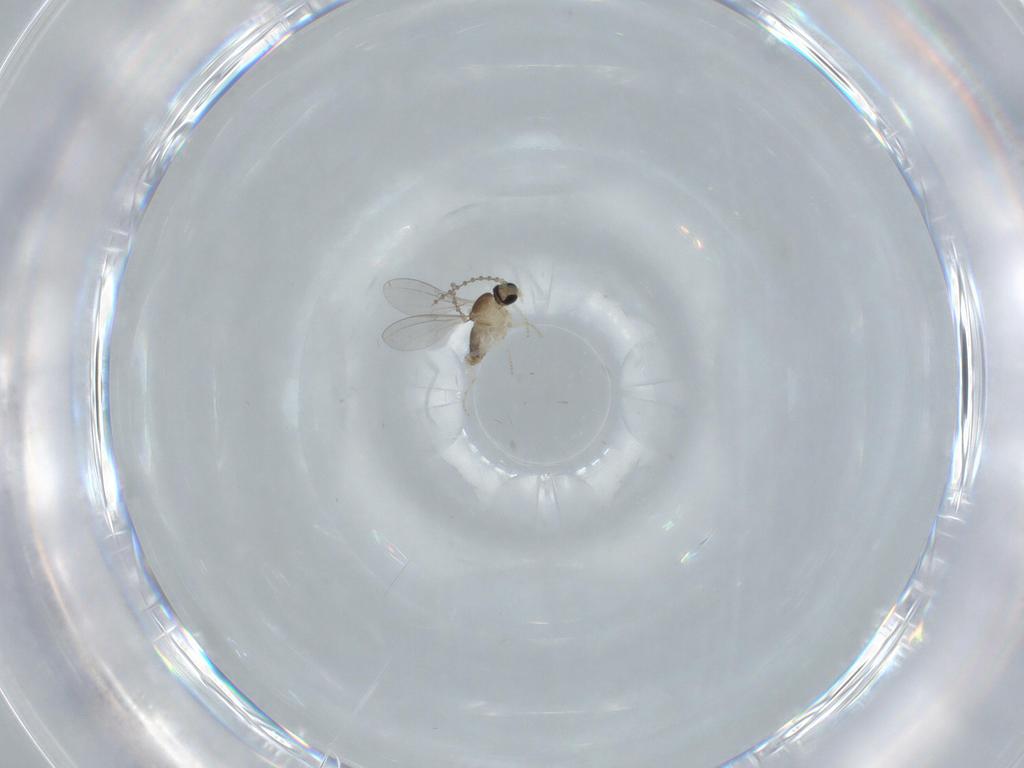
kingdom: Animalia
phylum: Arthropoda
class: Insecta
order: Diptera
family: Cecidomyiidae
